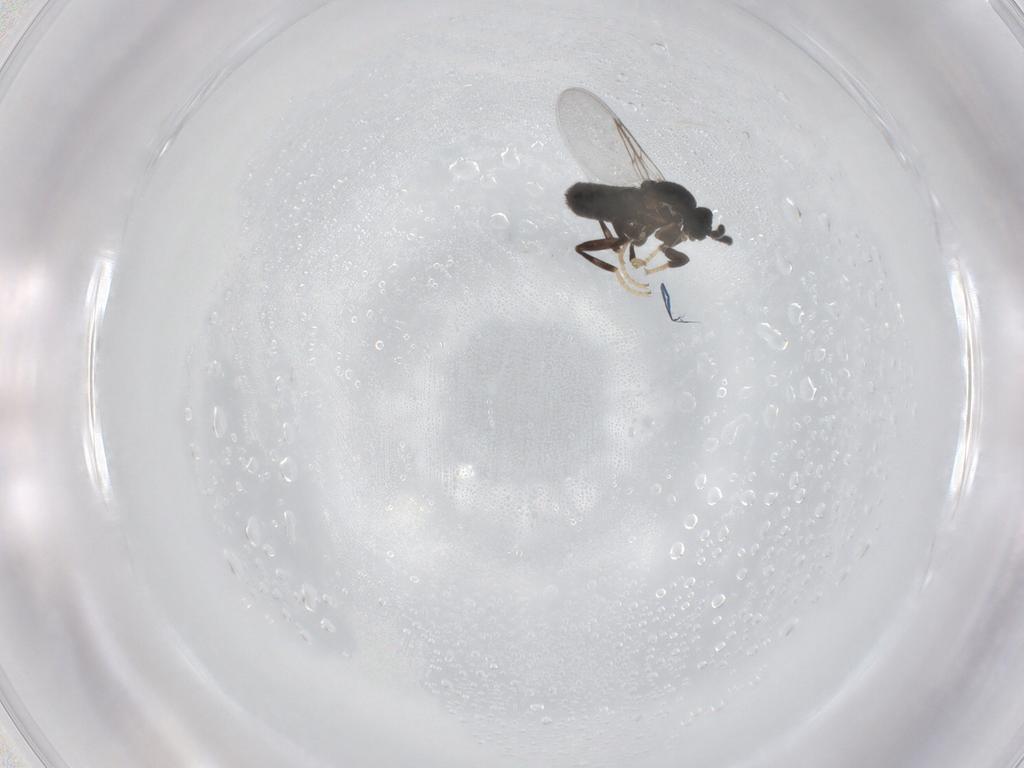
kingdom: Animalia
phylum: Arthropoda
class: Insecta
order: Diptera
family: Scatopsidae
